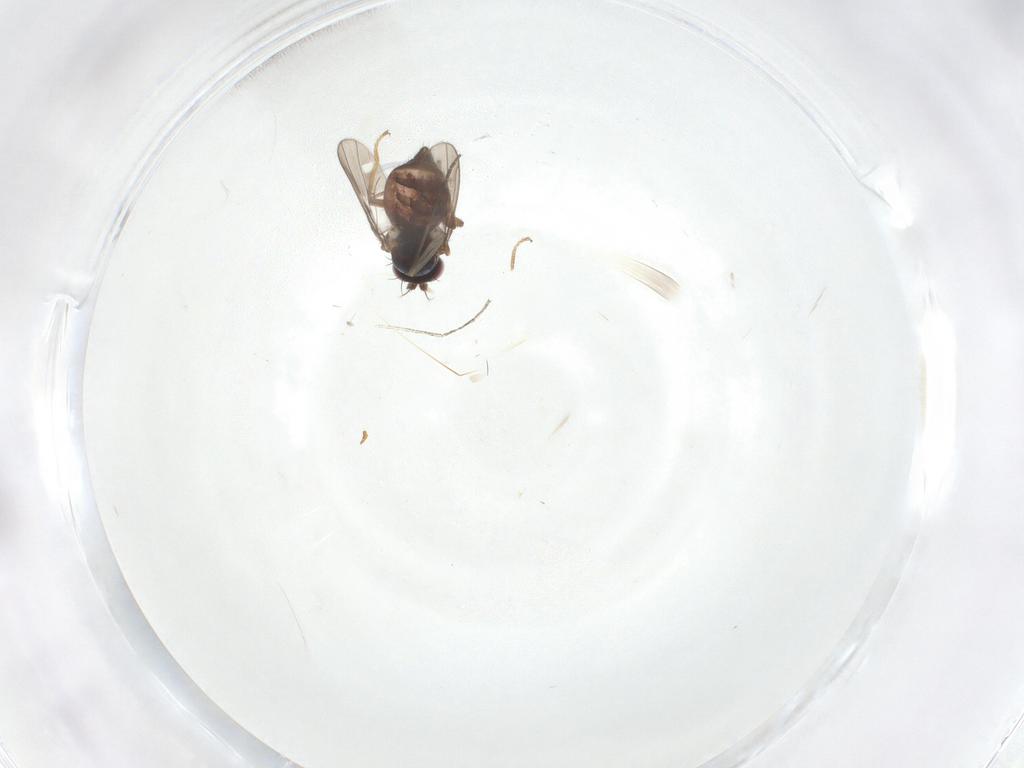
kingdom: Animalia
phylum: Arthropoda
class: Insecta
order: Diptera
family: Ephydridae
